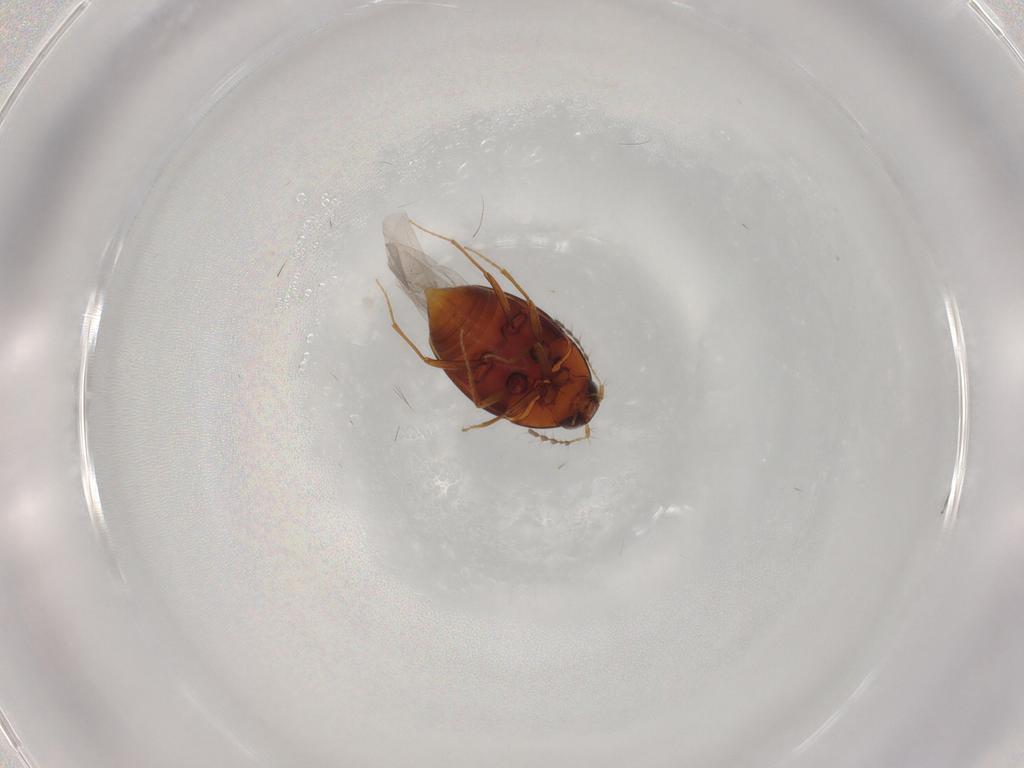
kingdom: Animalia
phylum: Arthropoda
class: Insecta
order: Coleoptera
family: Staphylinidae
